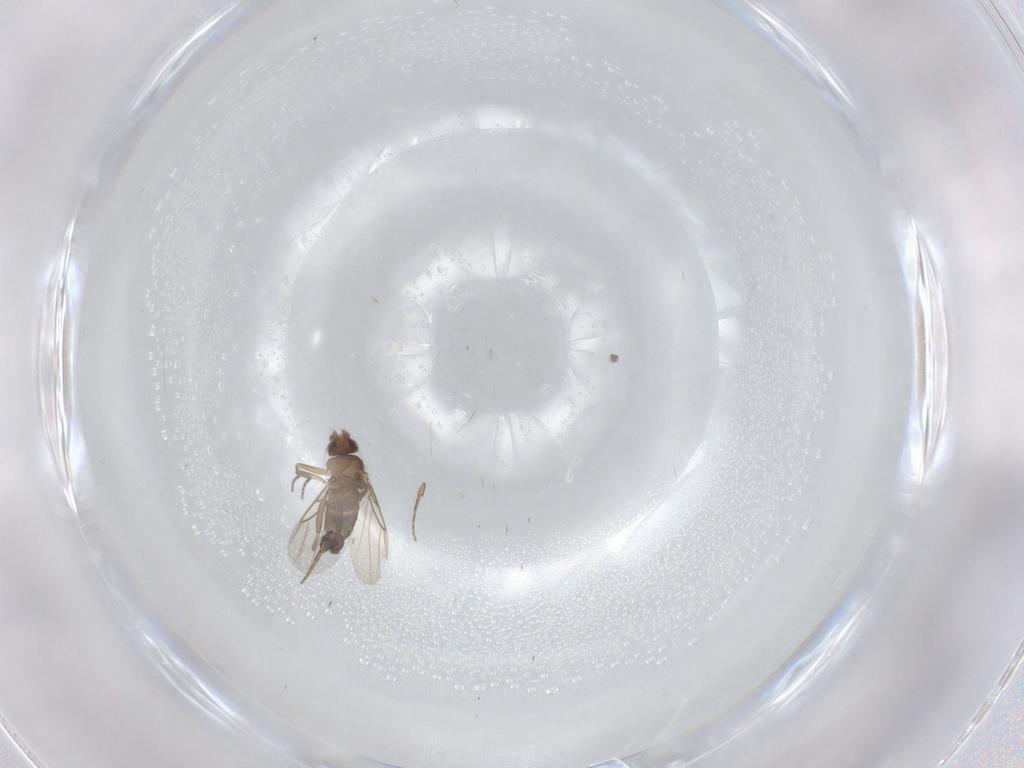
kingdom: Animalia
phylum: Arthropoda
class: Insecta
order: Diptera
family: Phoridae
